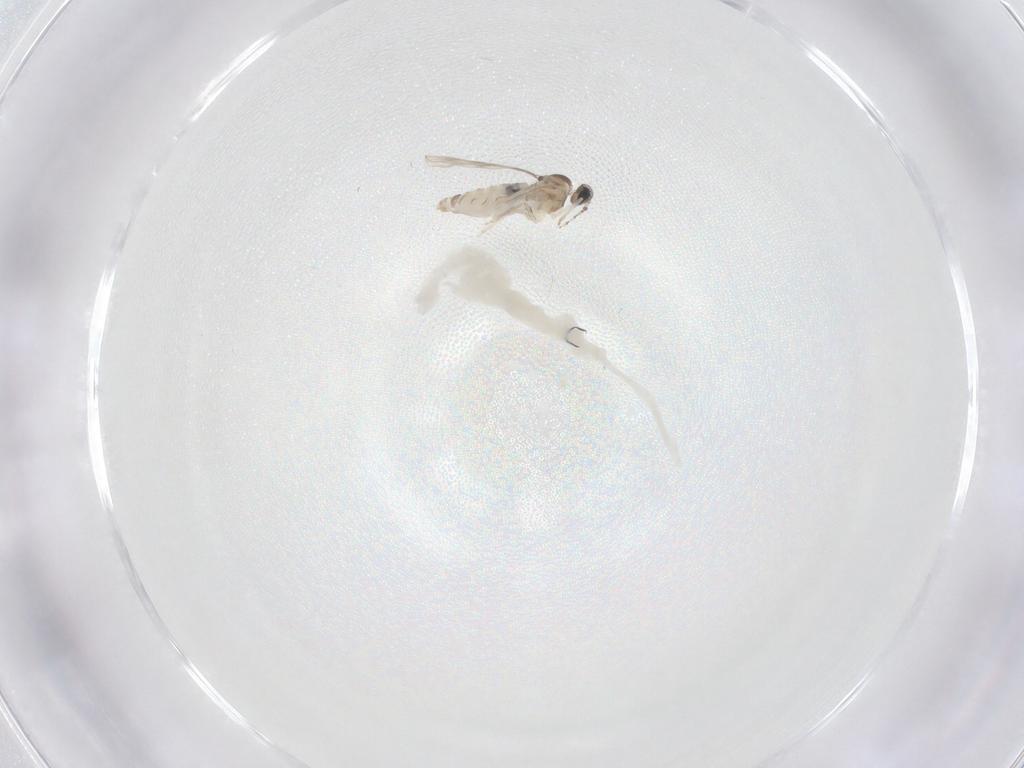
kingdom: Animalia
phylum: Arthropoda
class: Insecta
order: Diptera
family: Cecidomyiidae
